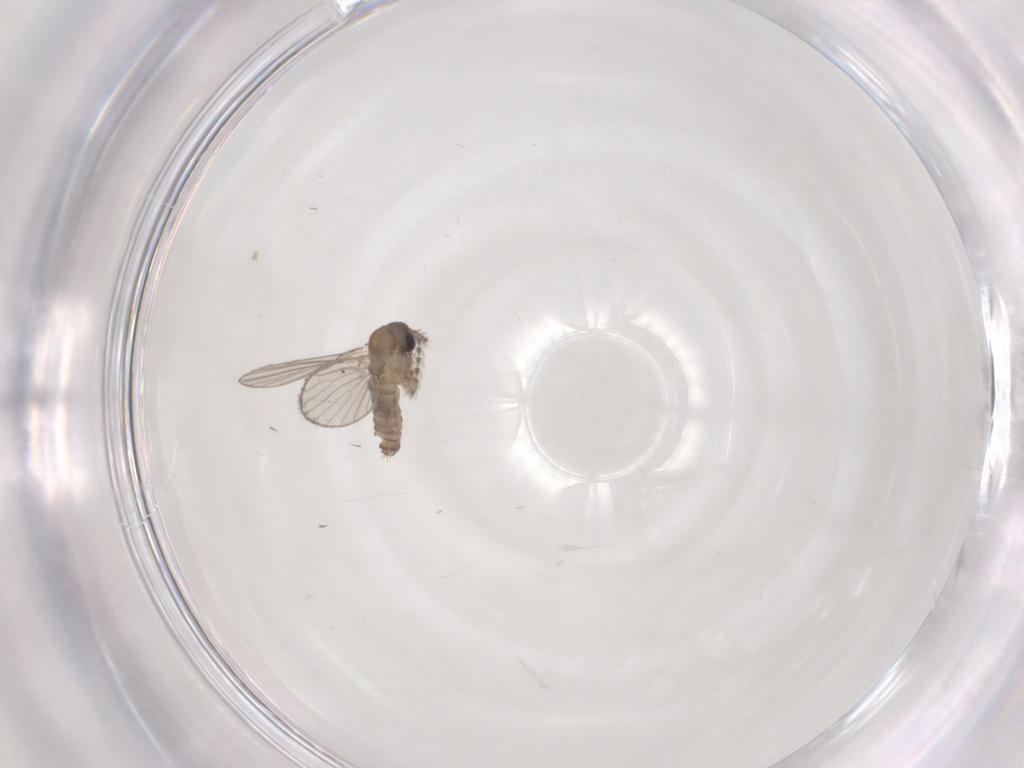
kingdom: Animalia
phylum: Arthropoda
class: Insecta
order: Diptera
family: Psychodidae
